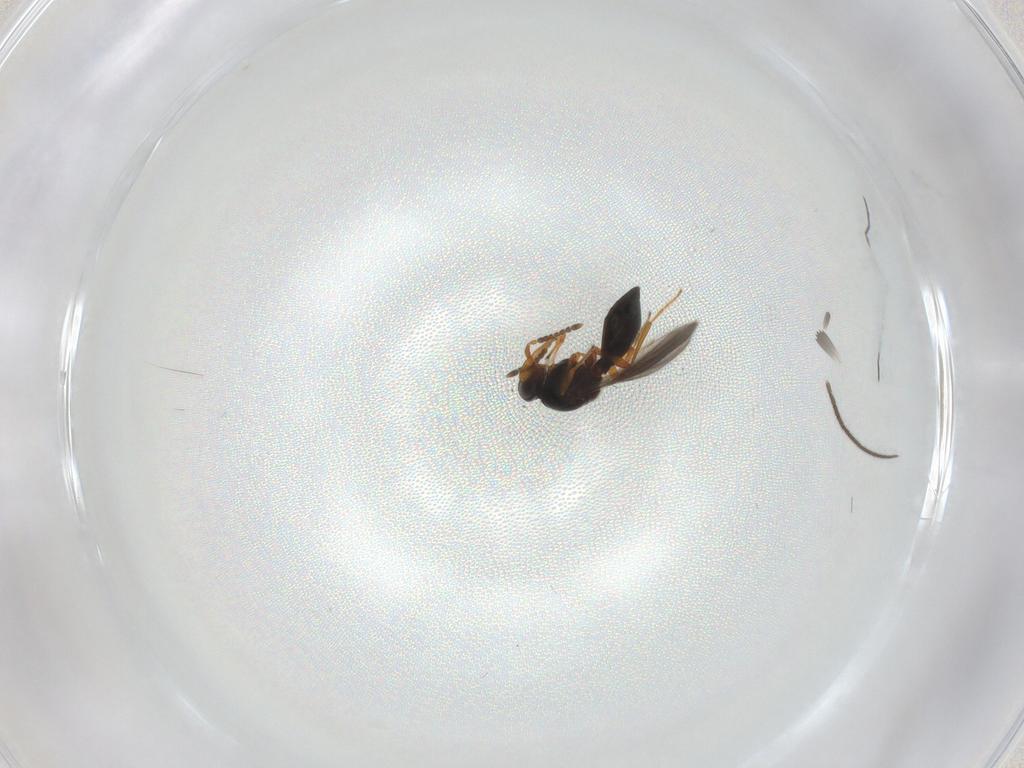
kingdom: Animalia
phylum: Arthropoda
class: Insecta
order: Hymenoptera
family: Platygastridae
